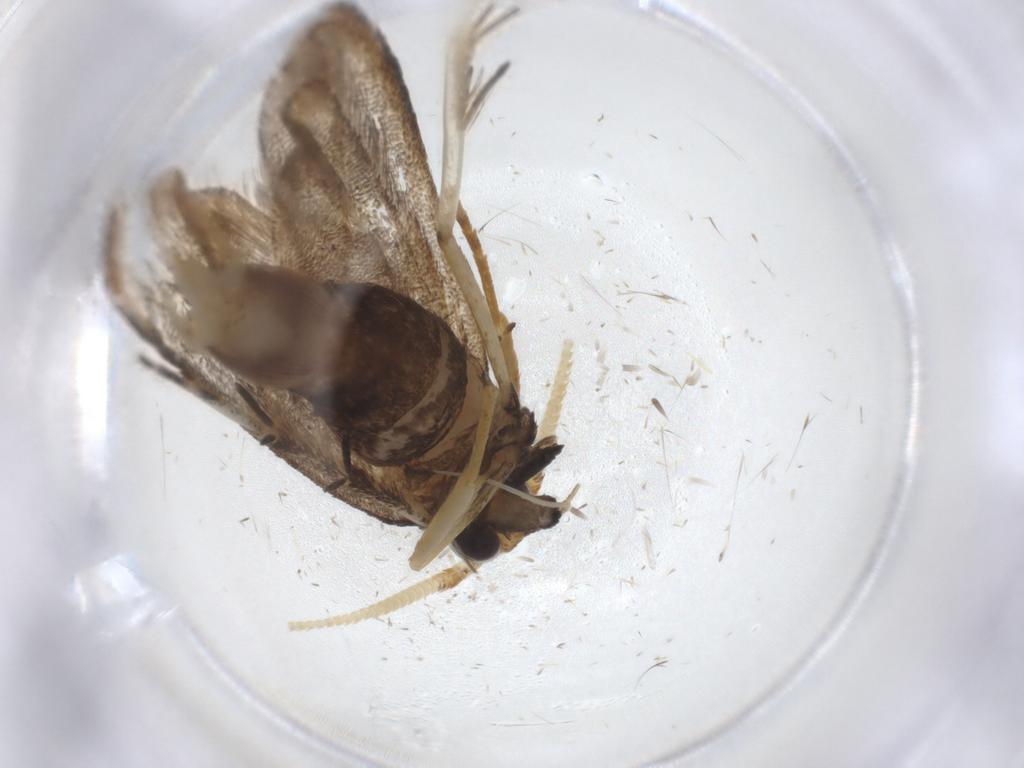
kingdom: Animalia
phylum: Arthropoda
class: Insecta
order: Lepidoptera
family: Lecithoceridae
